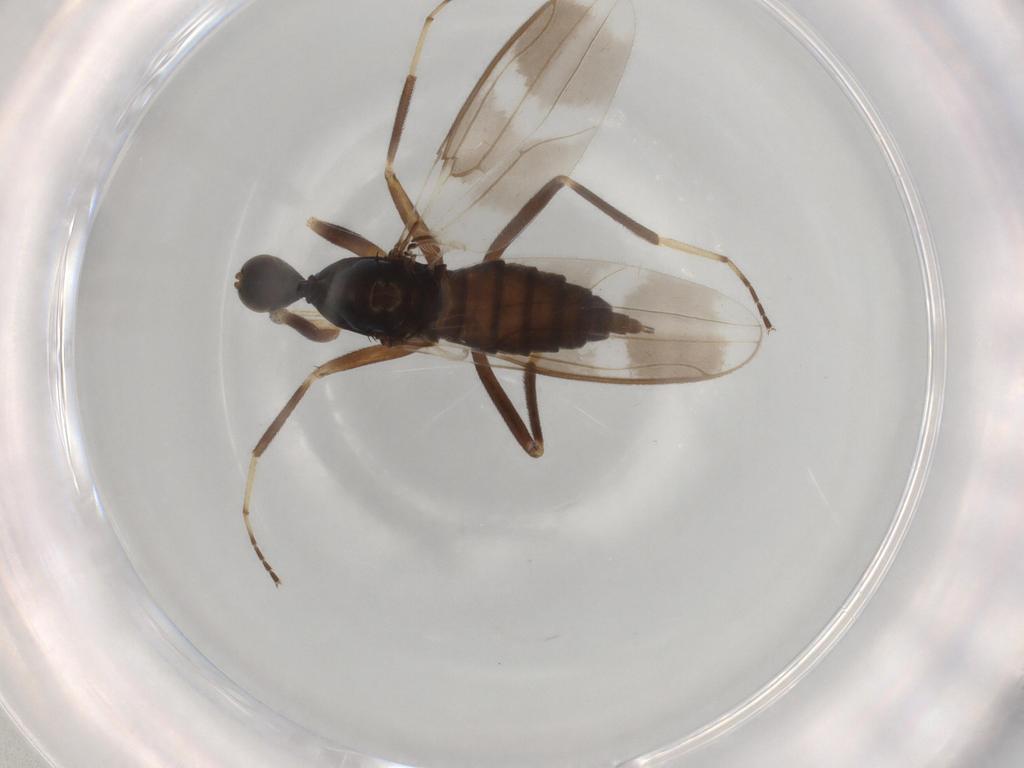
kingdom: Animalia
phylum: Arthropoda
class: Insecta
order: Diptera
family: Hybotidae
